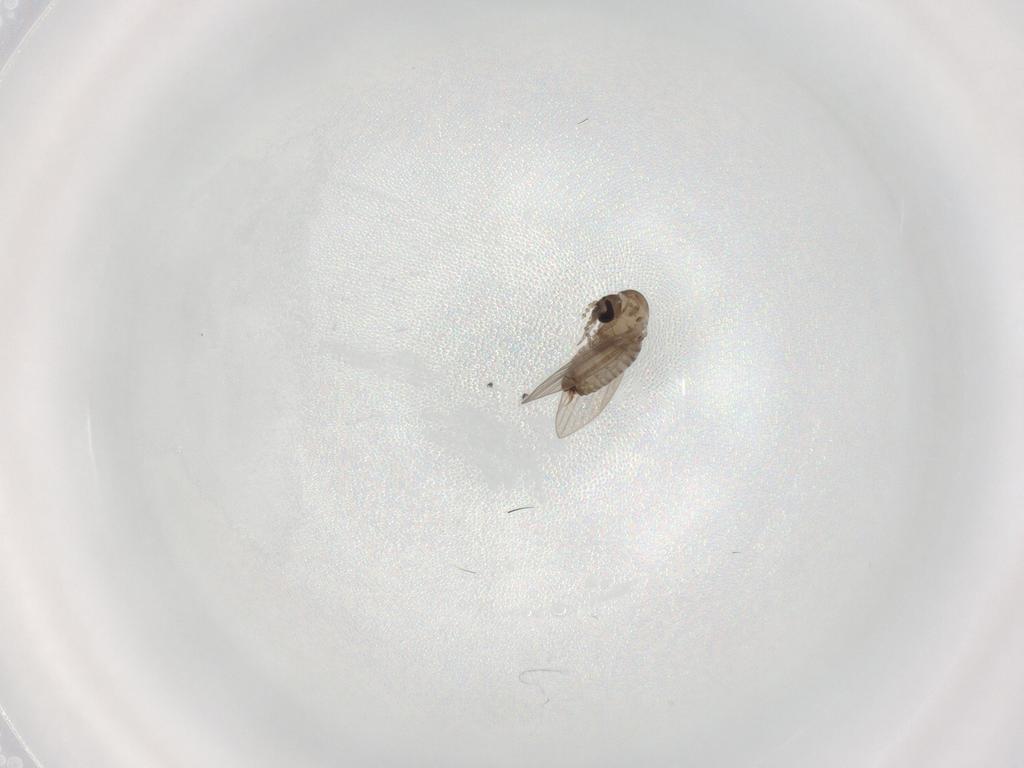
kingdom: Animalia
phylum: Arthropoda
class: Insecta
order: Diptera
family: Psychodidae
